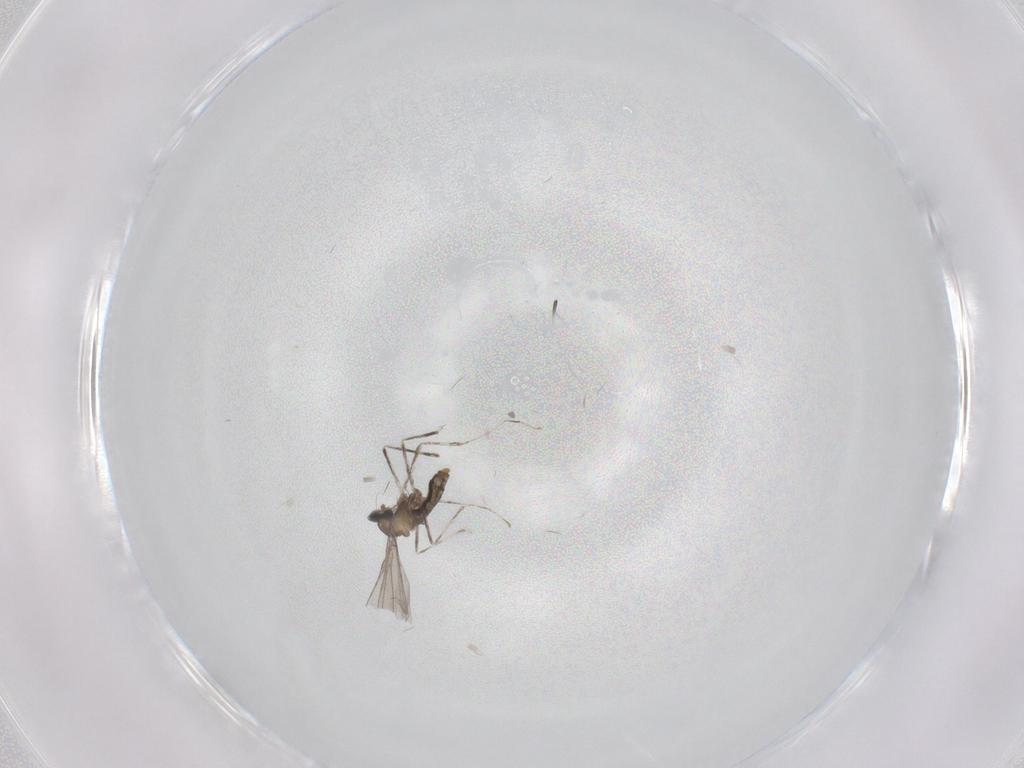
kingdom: Animalia
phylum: Arthropoda
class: Insecta
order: Diptera
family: Cecidomyiidae
